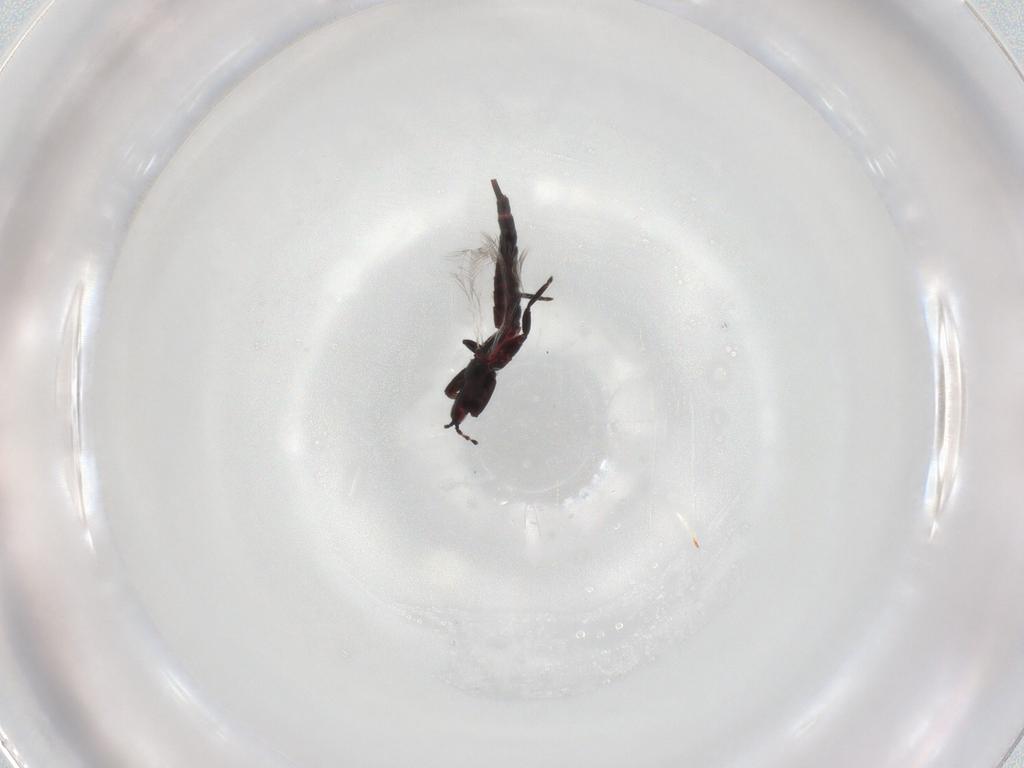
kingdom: Animalia
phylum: Arthropoda
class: Insecta
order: Thysanoptera
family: Phlaeothripidae
